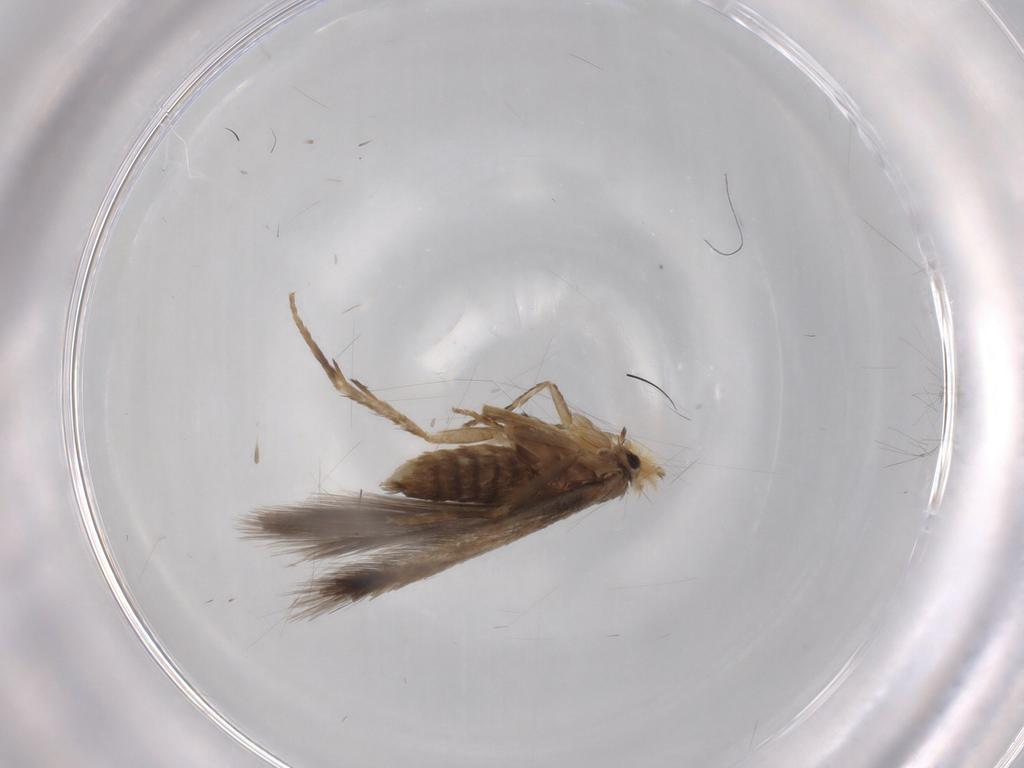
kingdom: Animalia
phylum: Arthropoda
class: Insecta
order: Lepidoptera
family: Nepticulidae
